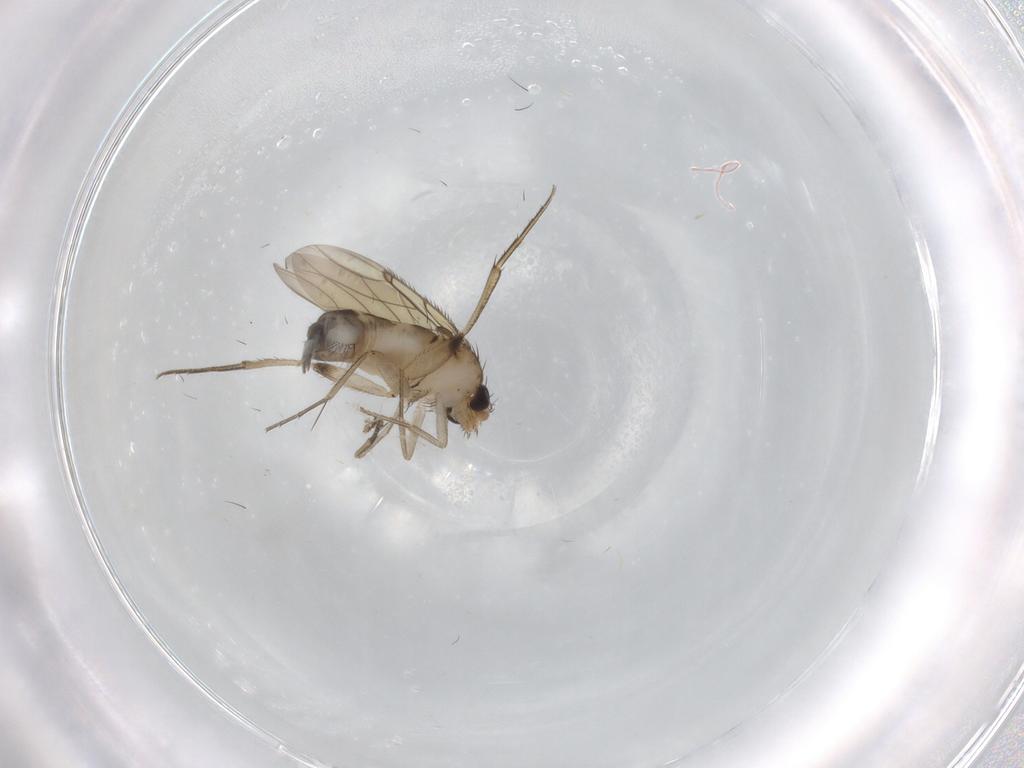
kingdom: Animalia
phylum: Arthropoda
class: Insecta
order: Diptera
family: Phoridae
